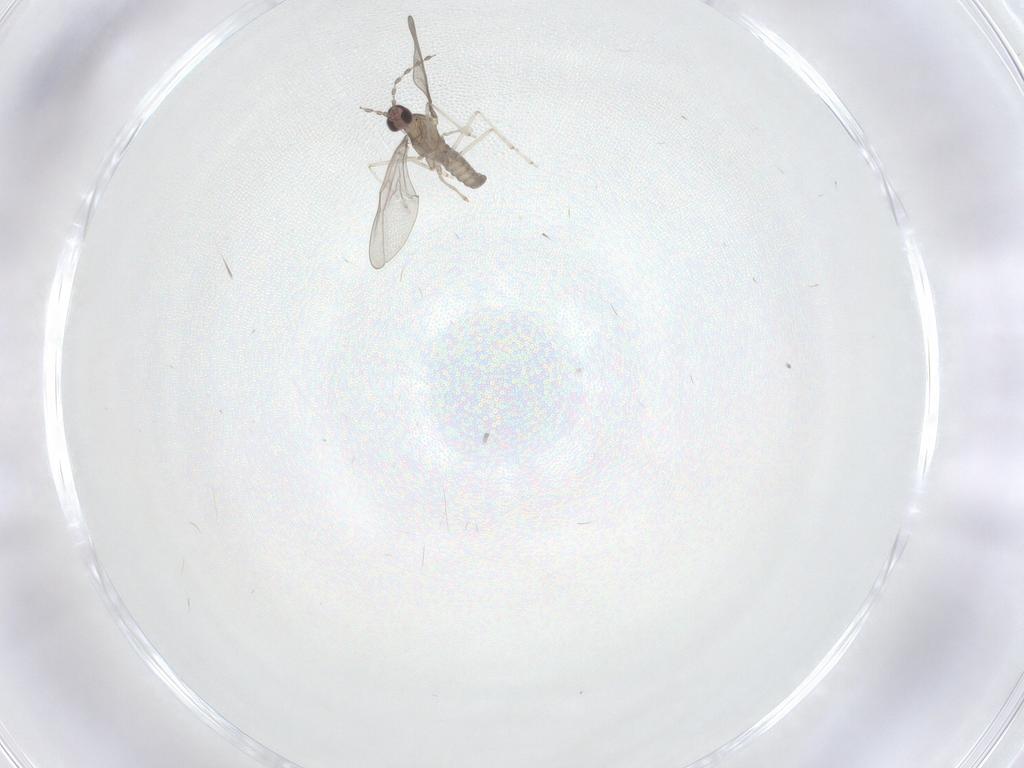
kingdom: Animalia
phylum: Arthropoda
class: Insecta
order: Diptera
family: Cecidomyiidae
